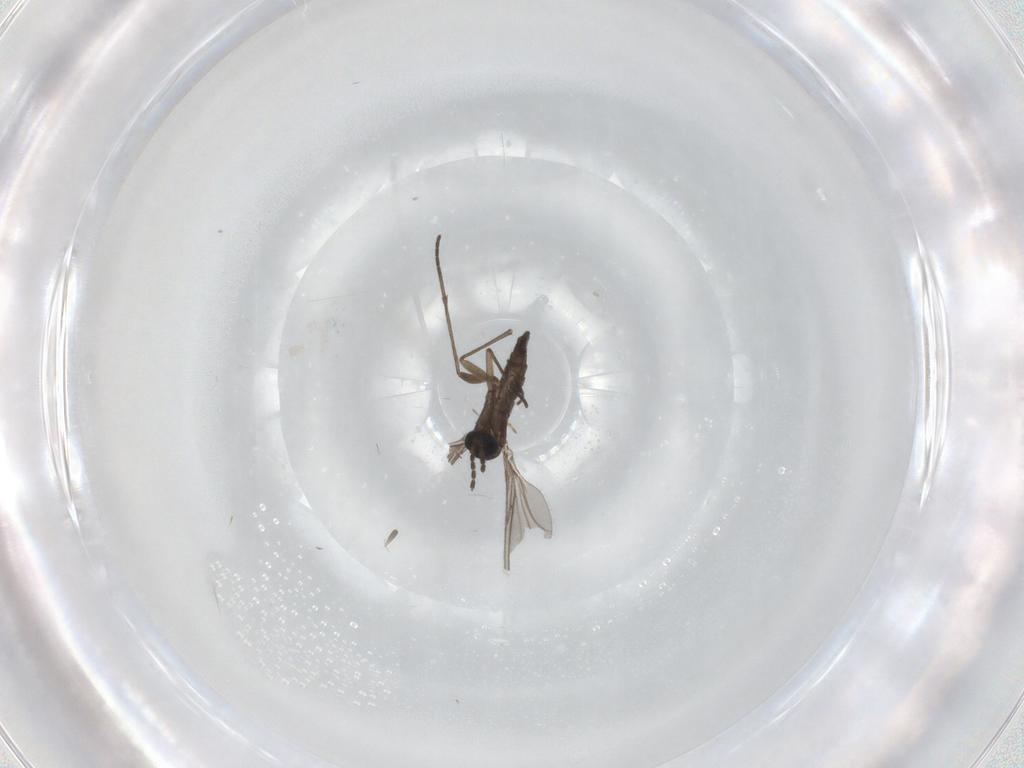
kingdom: Animalia
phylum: Arthropoda
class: Insecta
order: Diptera
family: Sciaridae
